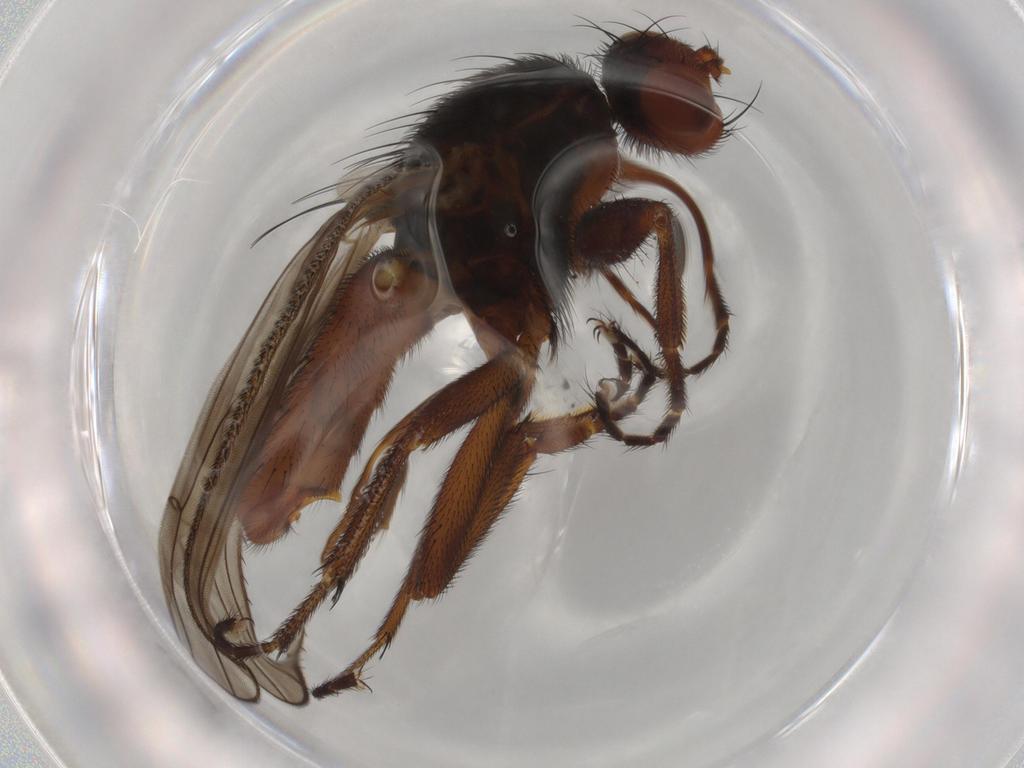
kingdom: Animalia
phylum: Arthropoda
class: Insecta
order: Diptera
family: Heleomyzidae
